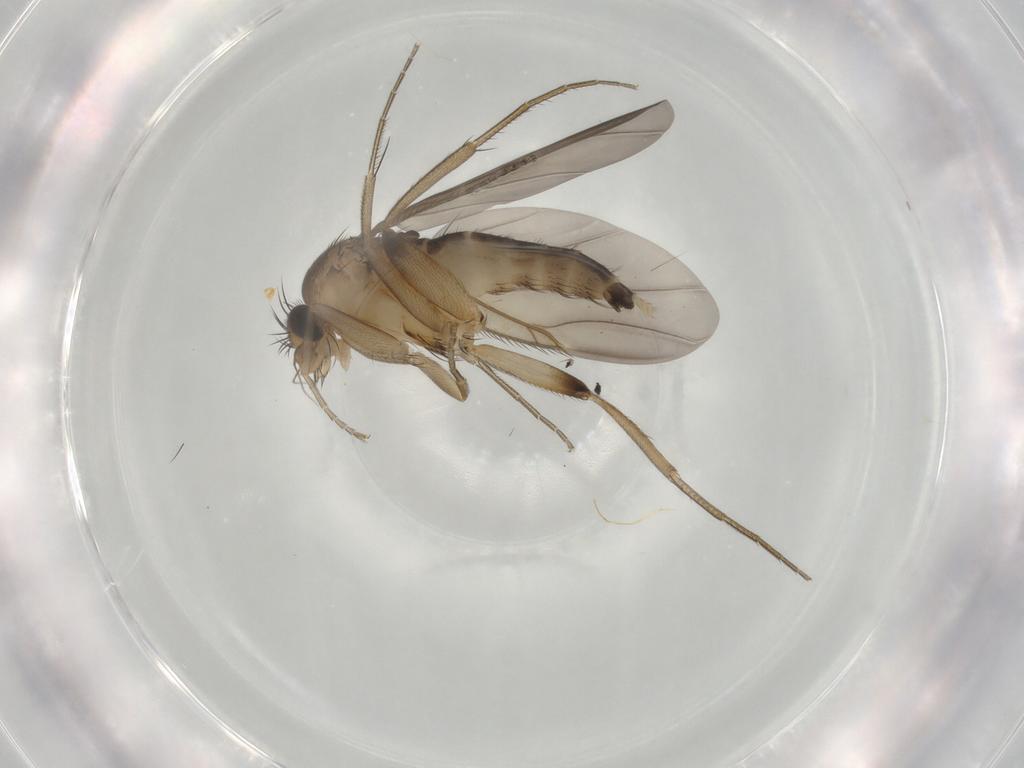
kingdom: Animalia
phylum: Arthropoda
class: Insecta
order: Diptera
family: Phoridae
